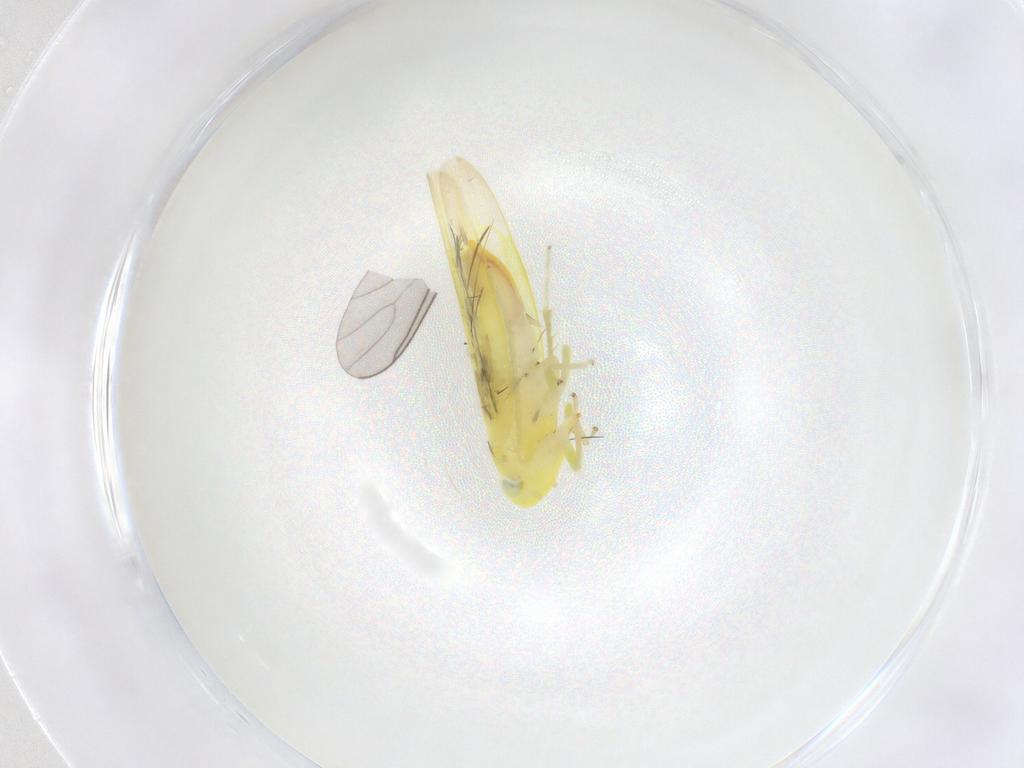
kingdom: Animalia
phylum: Arthropoda
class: Insecta
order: Hemiptera
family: Cicadellidae
